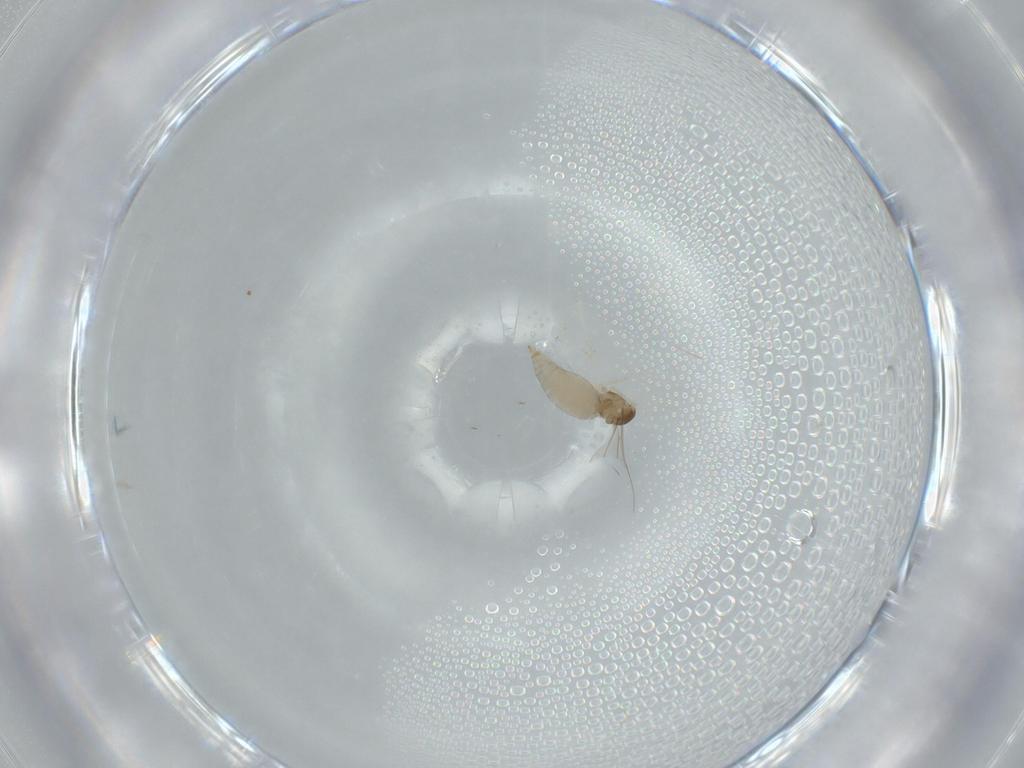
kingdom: Animalia
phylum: Arthropoda
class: Insecta
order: Diptera
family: Cecidomyiidae
